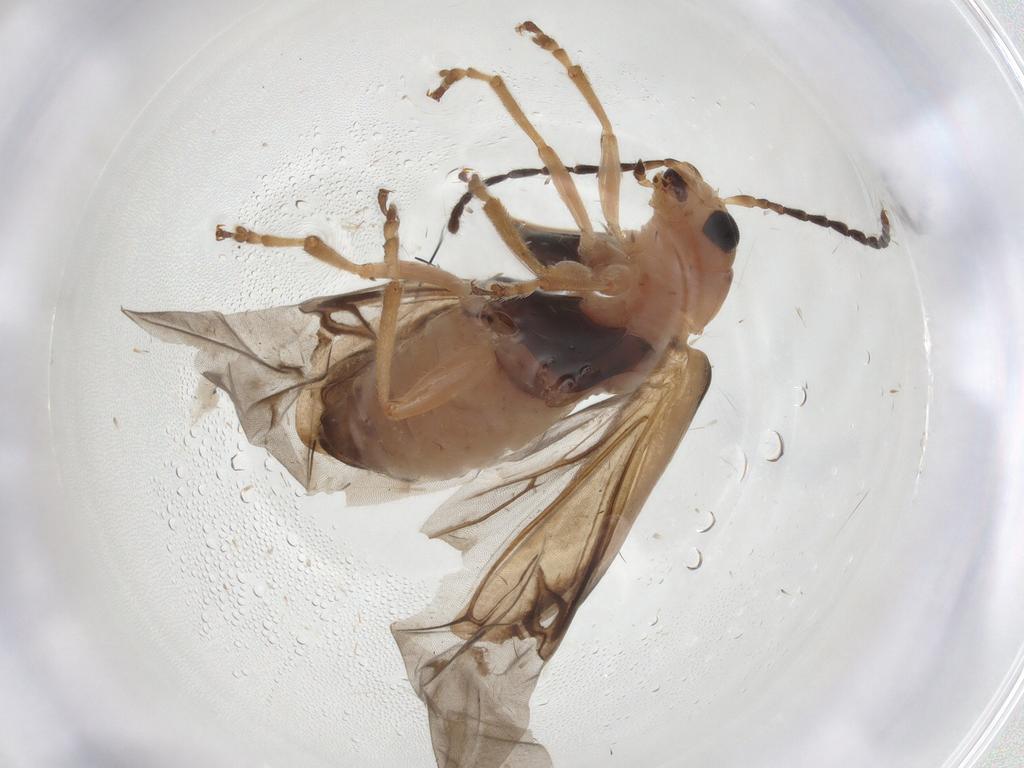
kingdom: Animalia
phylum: Arthropoda
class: Insecta
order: Coleoptera
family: Chrysomelidae
